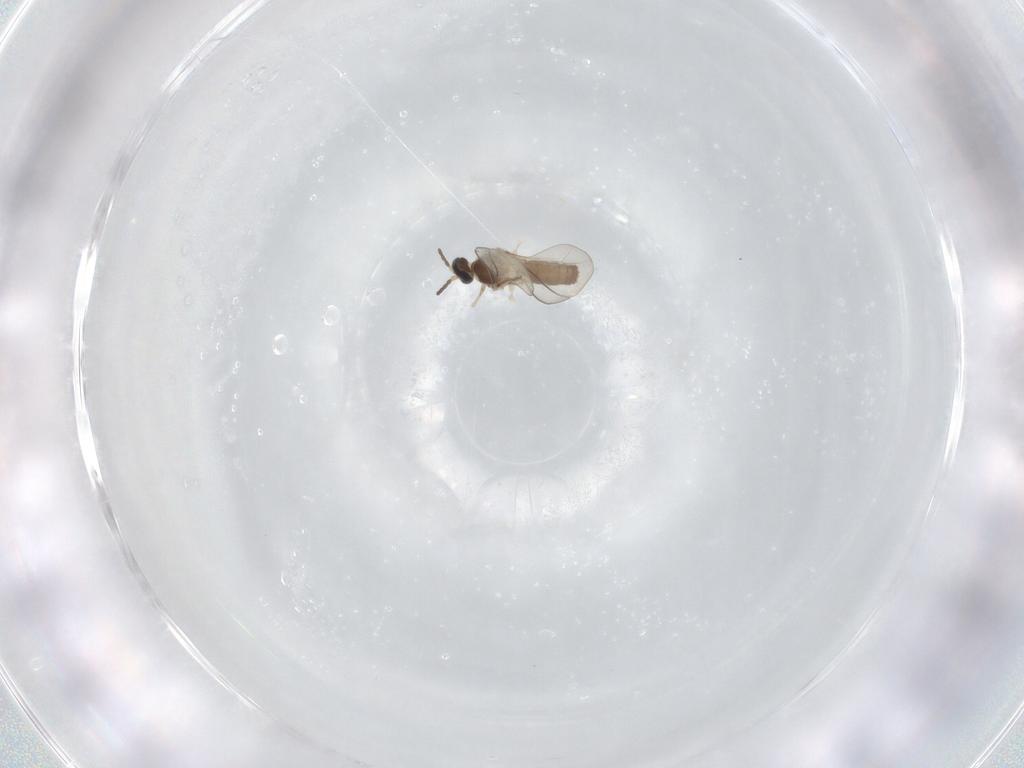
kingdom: Animalia
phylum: Arthropoda
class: Insecta
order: Diptera
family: Cecidomyiidae
